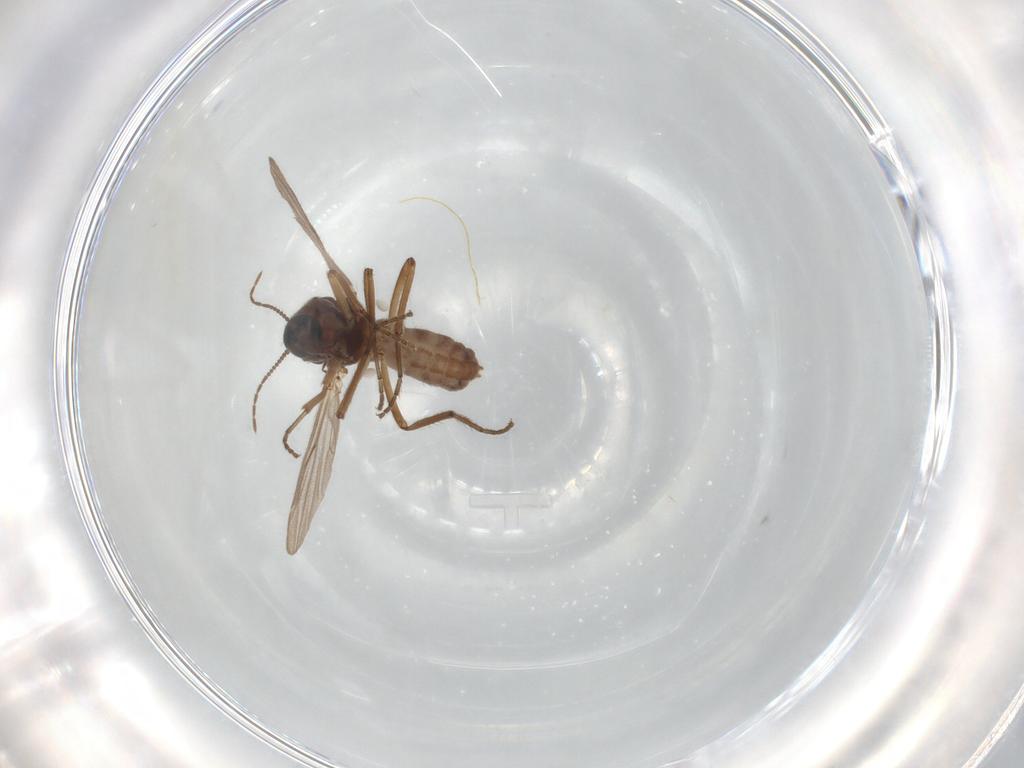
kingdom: Animalia
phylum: Arthropoda
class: Insecta
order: Diptera
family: Ceratopogonidae
